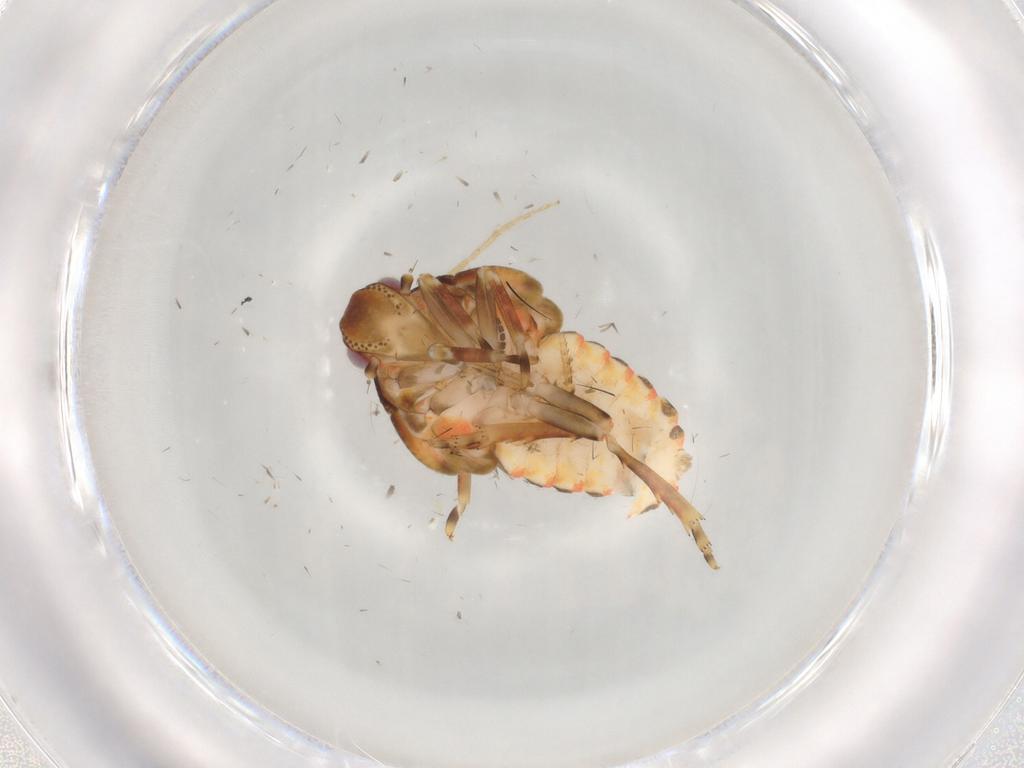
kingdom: Animalia
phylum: Arthropoda
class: Insecta
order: Hemiptera
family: Flatidae
